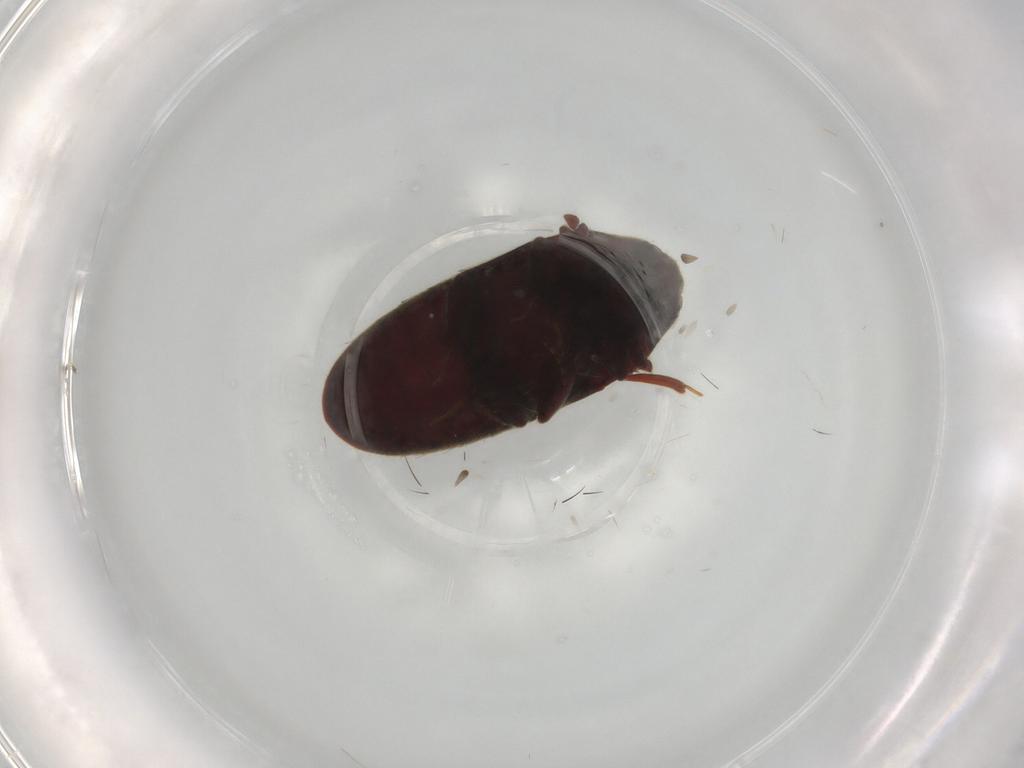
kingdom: Animalia
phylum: Arthropoda
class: Insecta
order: Coleoptera
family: Throscidae
